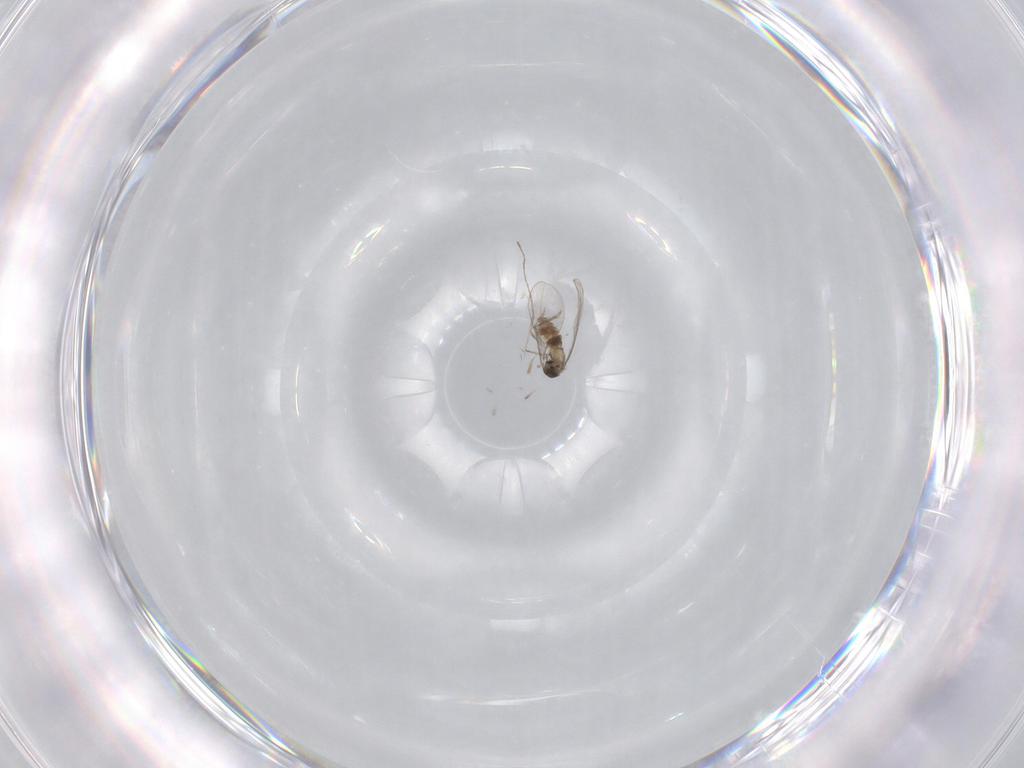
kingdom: Animalia
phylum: Arthropoda
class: Insecta
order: Diptera
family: Cecidomyiidae
